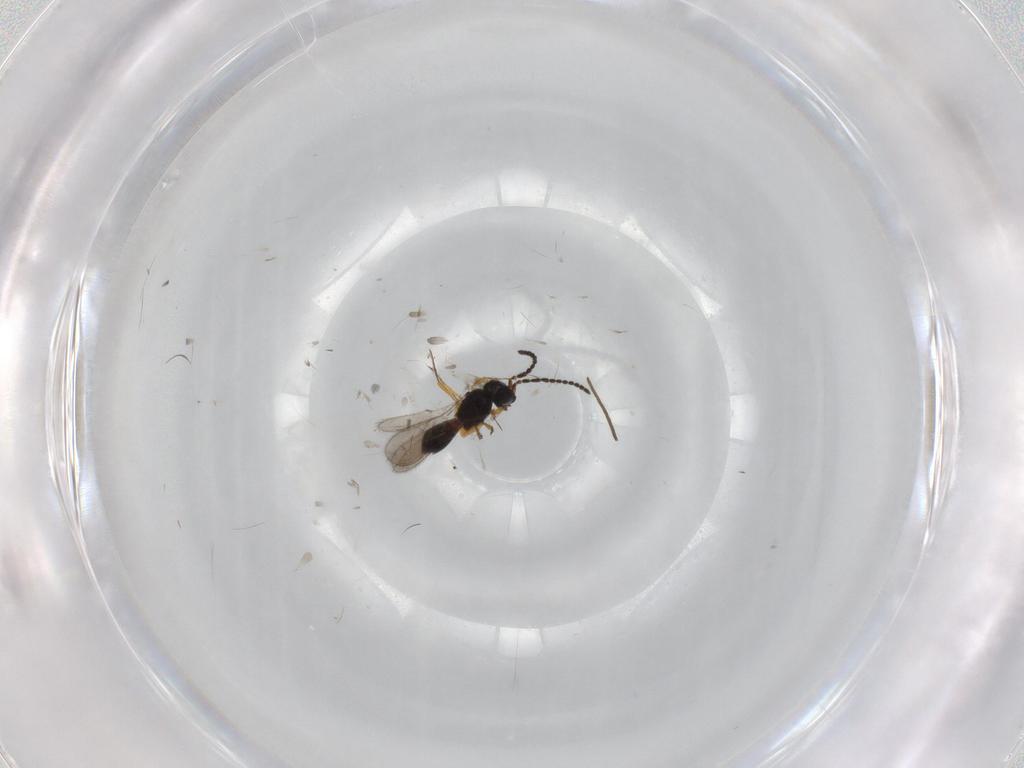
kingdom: Animalia
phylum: Arthropoda
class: Insecta
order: Hymenoptera
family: Scelionidae
